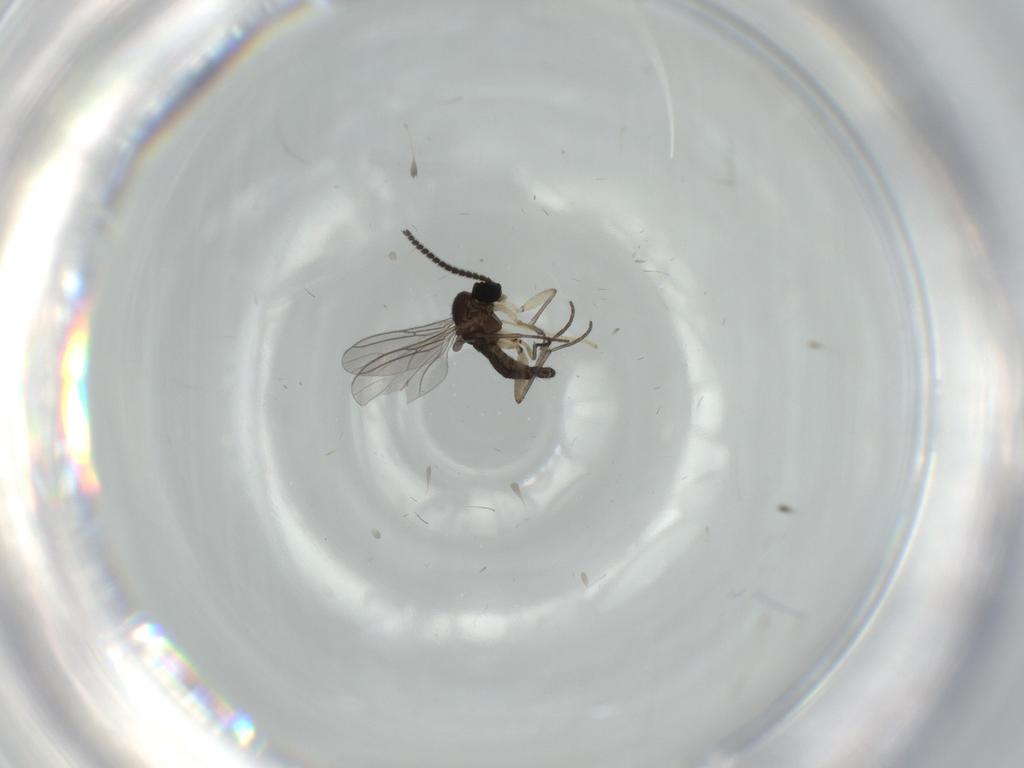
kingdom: Animalia
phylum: Arthropoda
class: Insecta
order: Diptera
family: Sciaridae
